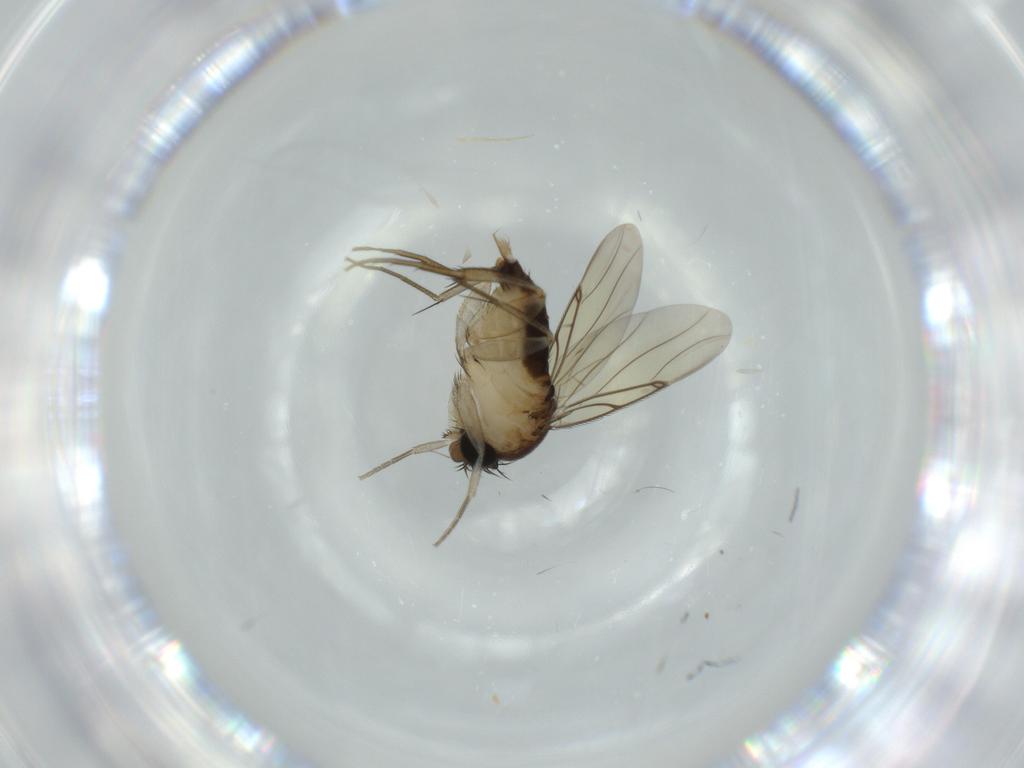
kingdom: Animalia
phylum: Arthropoda
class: Insecta
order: Diptera
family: Phoridae
